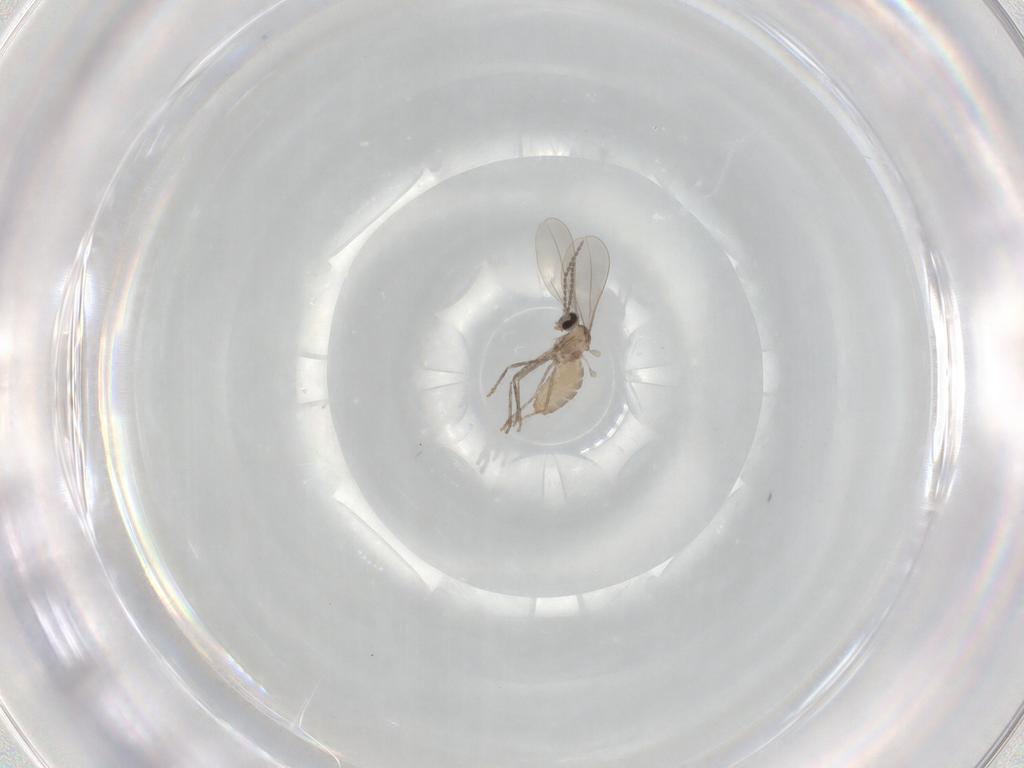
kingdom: Animalia
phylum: Arthropoda
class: Insecta
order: Diptera
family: Cecidomyiidae
